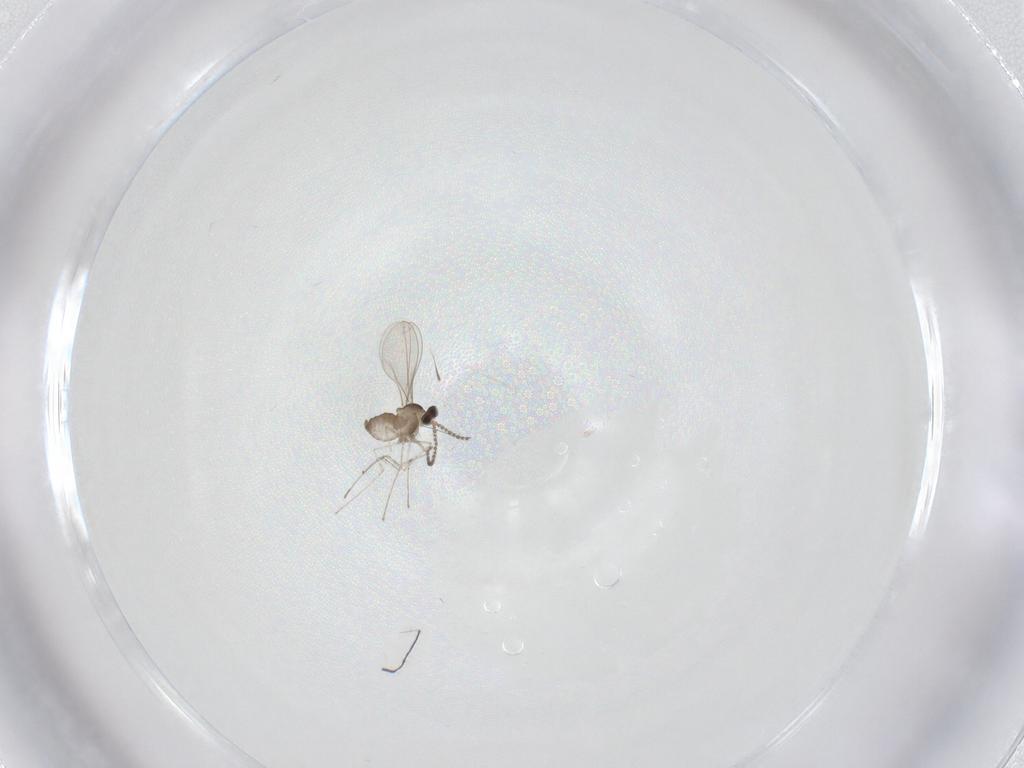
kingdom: Animalia
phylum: Arthropoda
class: Insecta
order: Diptera
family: Cecidomyiidae
